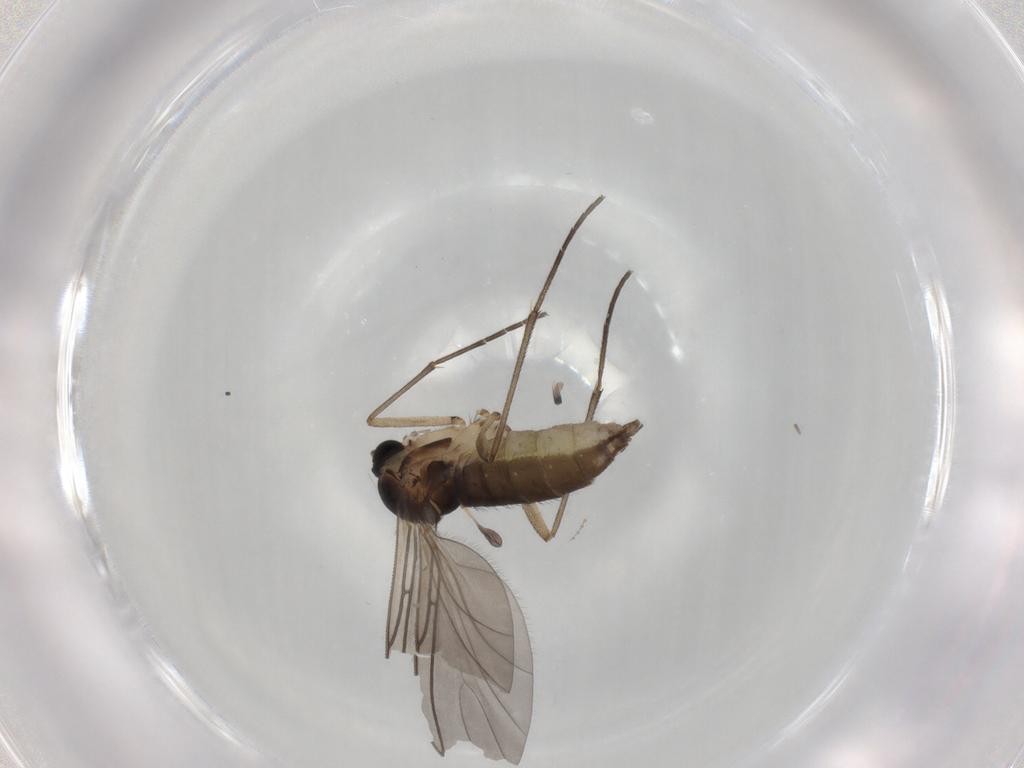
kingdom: Animalia
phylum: Arthropoda
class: Insecta
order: Diptera
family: Sciaridae
